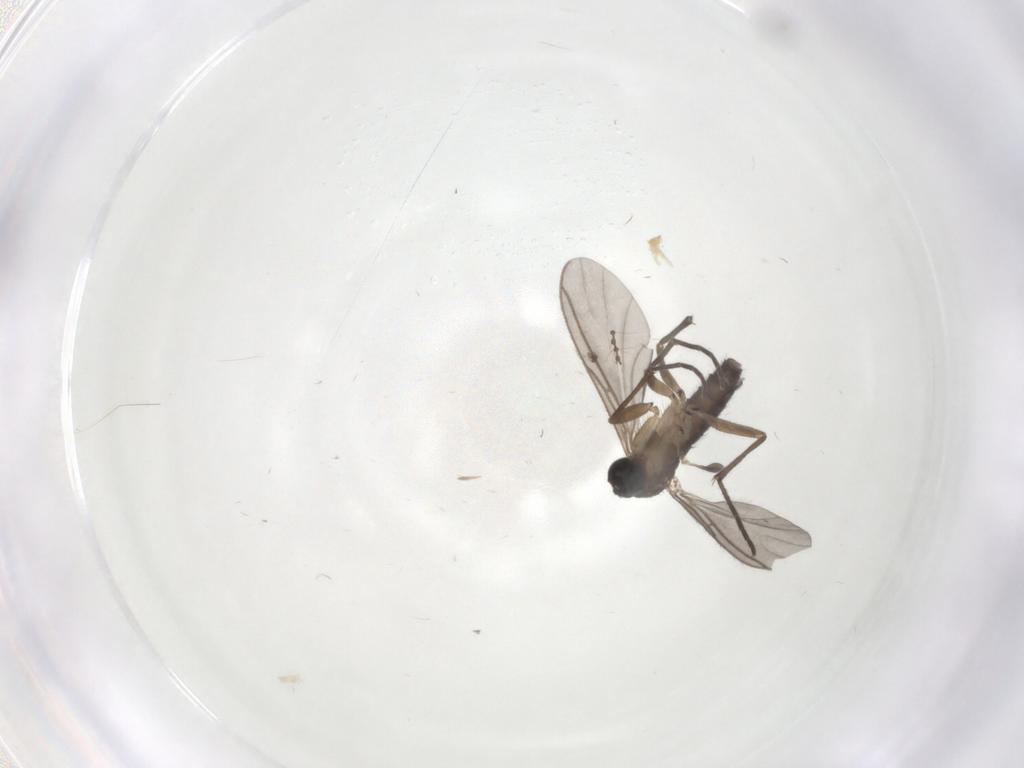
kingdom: Animalia
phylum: Arthropoda
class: Insecta
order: Diptera
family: Sciaridae
